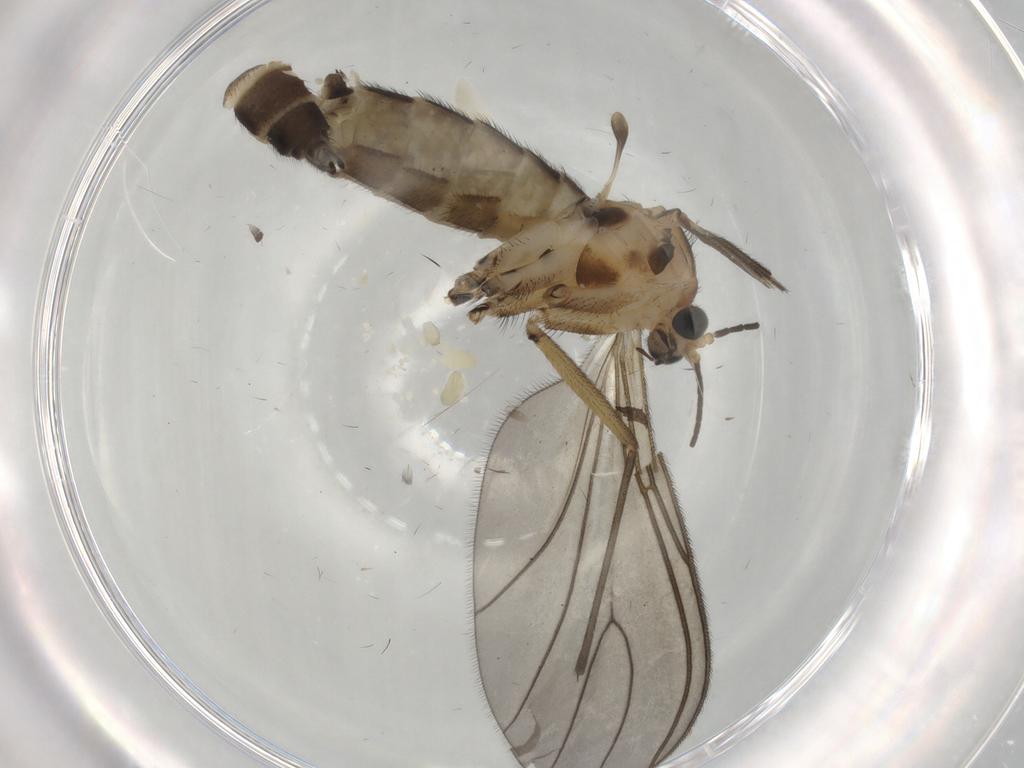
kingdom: Animalia
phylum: Arthropoda
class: Insecta
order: Diptera
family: Sciaridae
